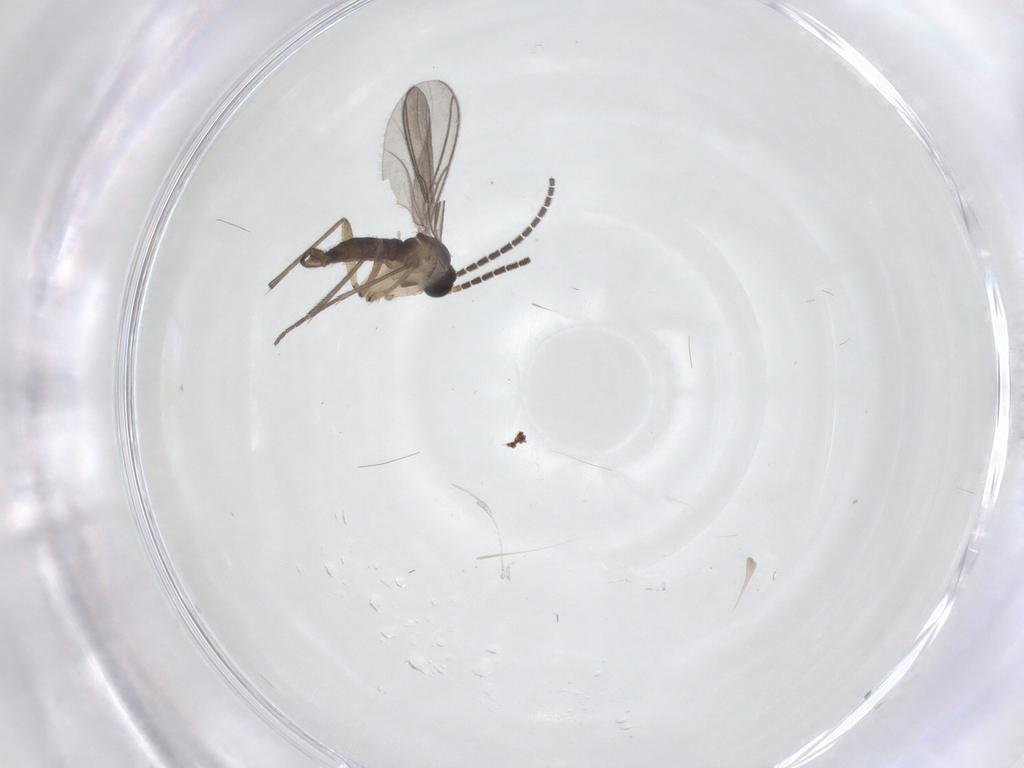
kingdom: Animalia
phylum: Arthropoda
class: Insecta
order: Diptera
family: Sciaridae
